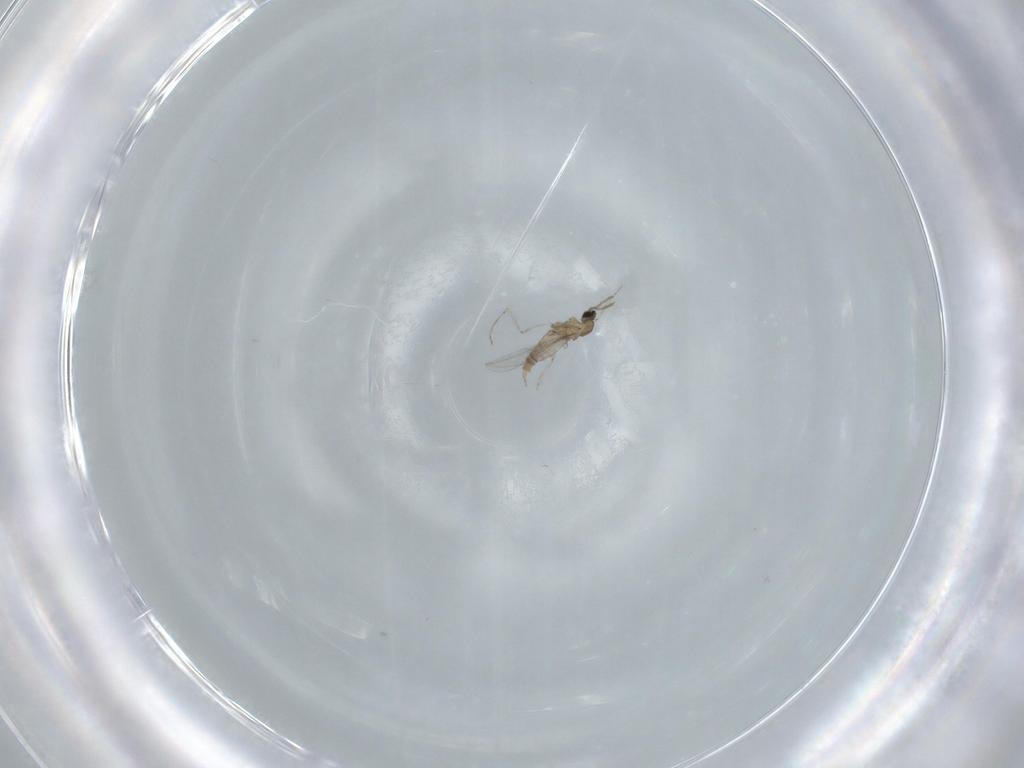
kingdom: Animalia
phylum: Arthropoda
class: Insecta
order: Diptera
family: Cecidomyiidae
